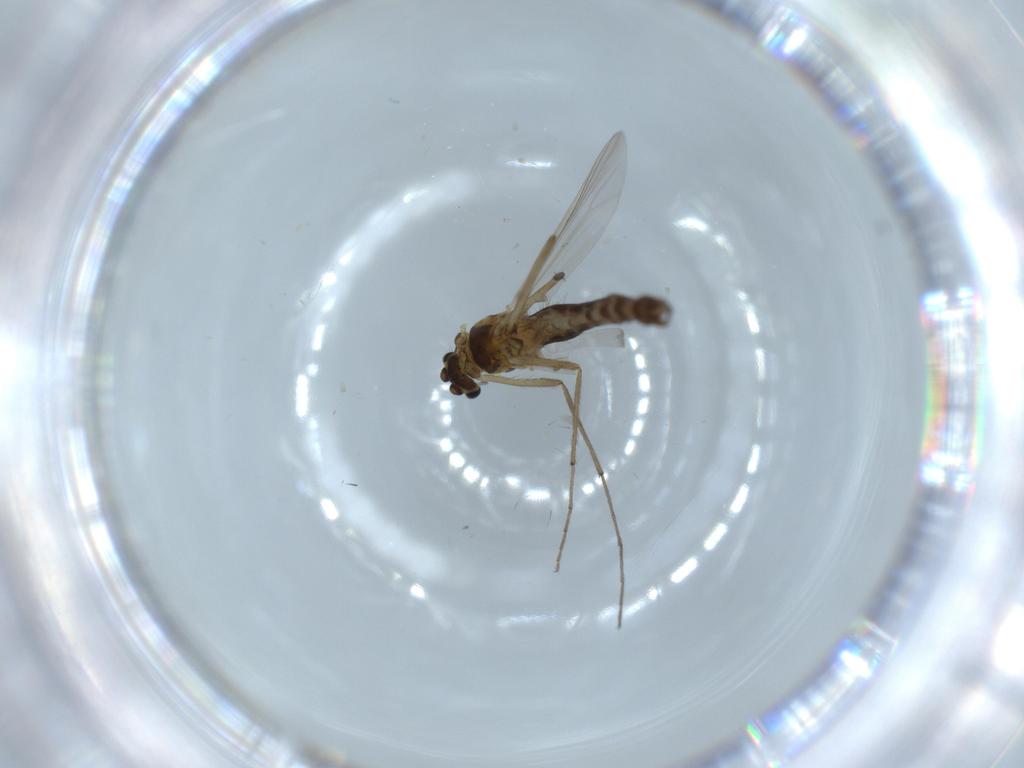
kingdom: Animalia
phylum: Arthropoda
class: Insecta
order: Diptera
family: Chironomidae
